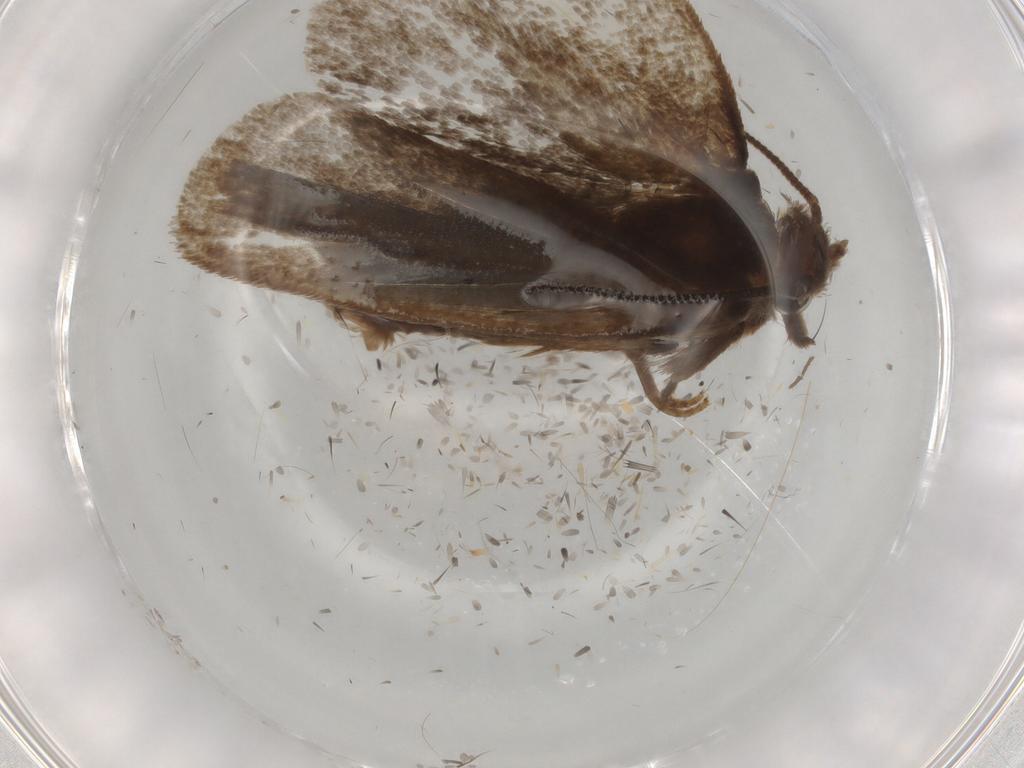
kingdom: Animalia
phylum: Arthropoda
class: Insecta
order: Lepidoptera
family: Tineidae
